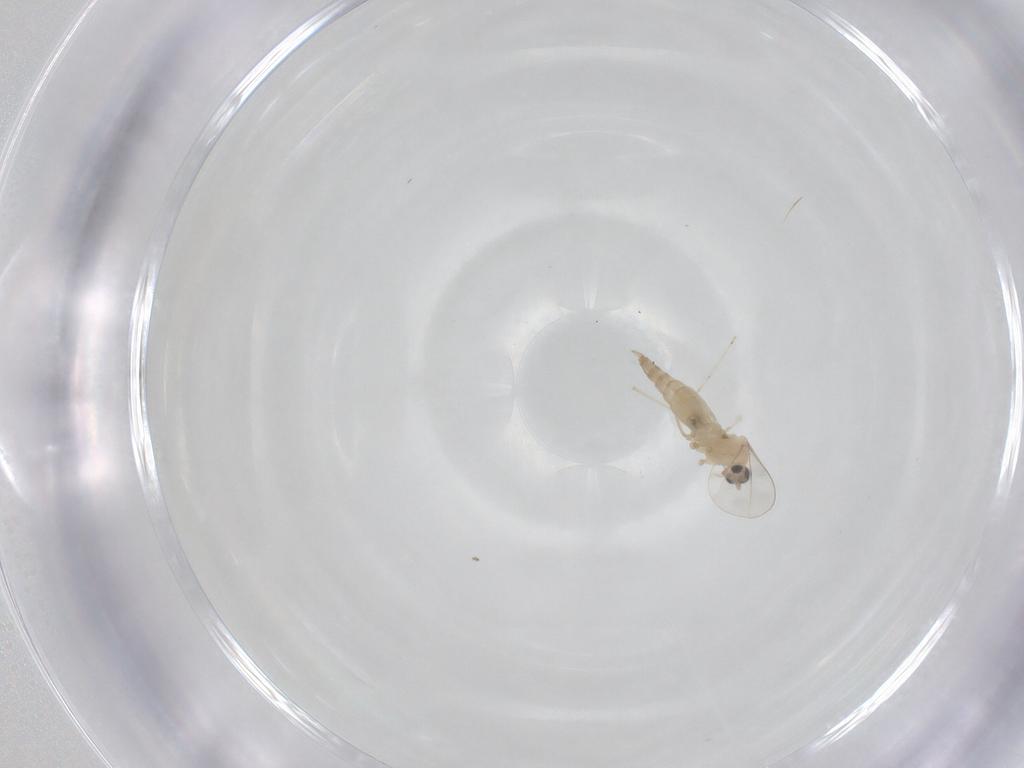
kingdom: Animalia
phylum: Arthropoda
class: Insecta
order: Diptera
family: Cecidomyiidae
